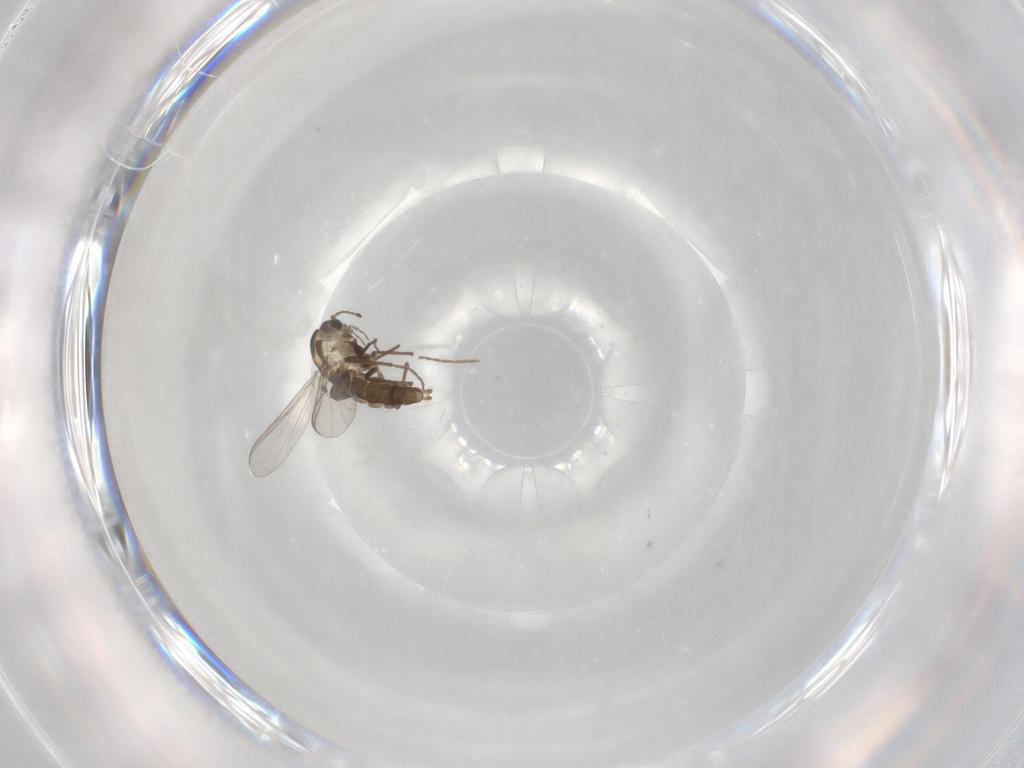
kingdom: Animalia
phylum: Arthropoda
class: Insecta
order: Diptera
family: Chironomidae
